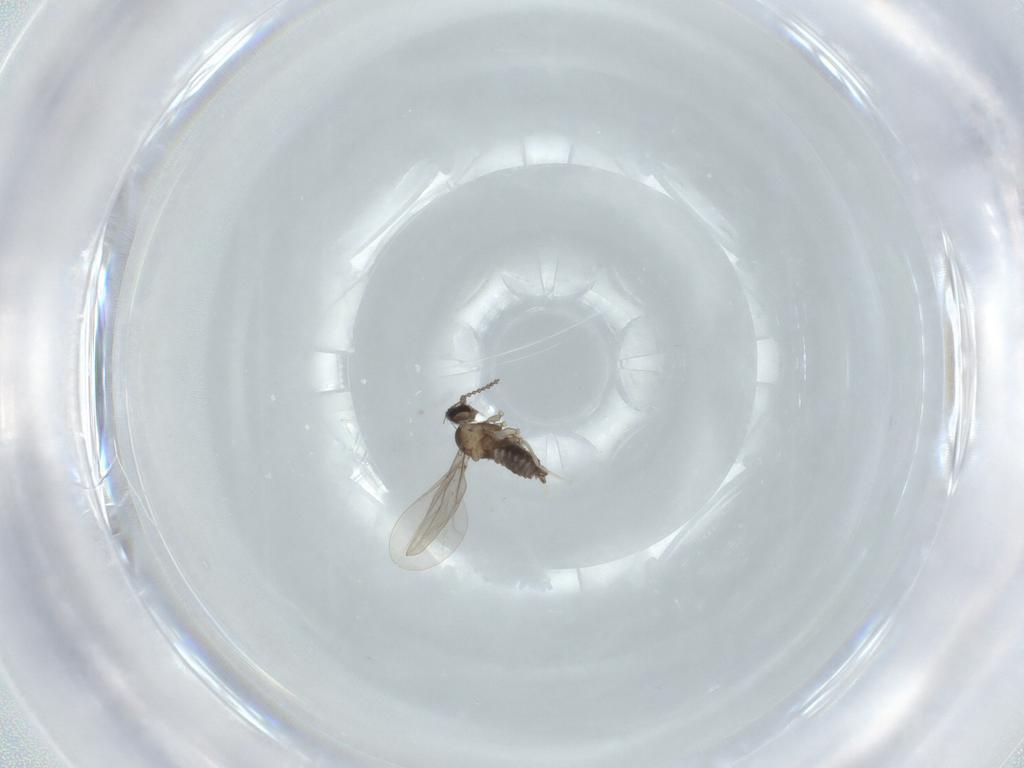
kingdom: Animalia
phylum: Arthropoda
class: Insecta
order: Diptera
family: Cecidomyiidae
